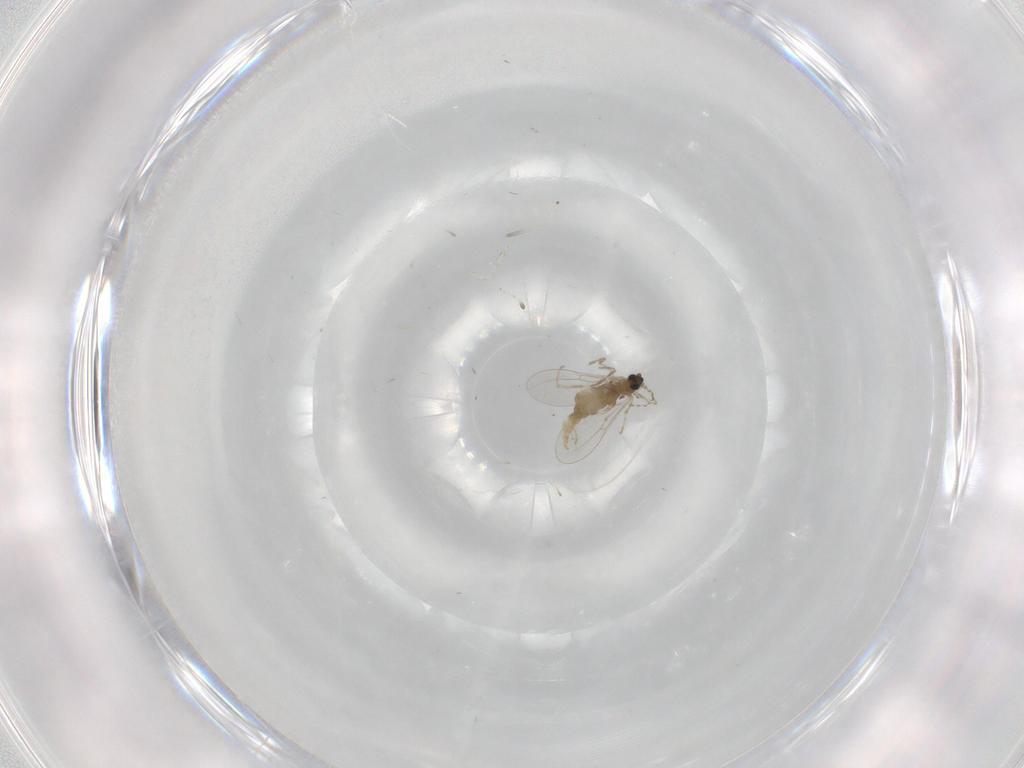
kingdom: Animalia
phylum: Arthropoda
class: Insecta
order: Diptera
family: Cecidomyiidae
